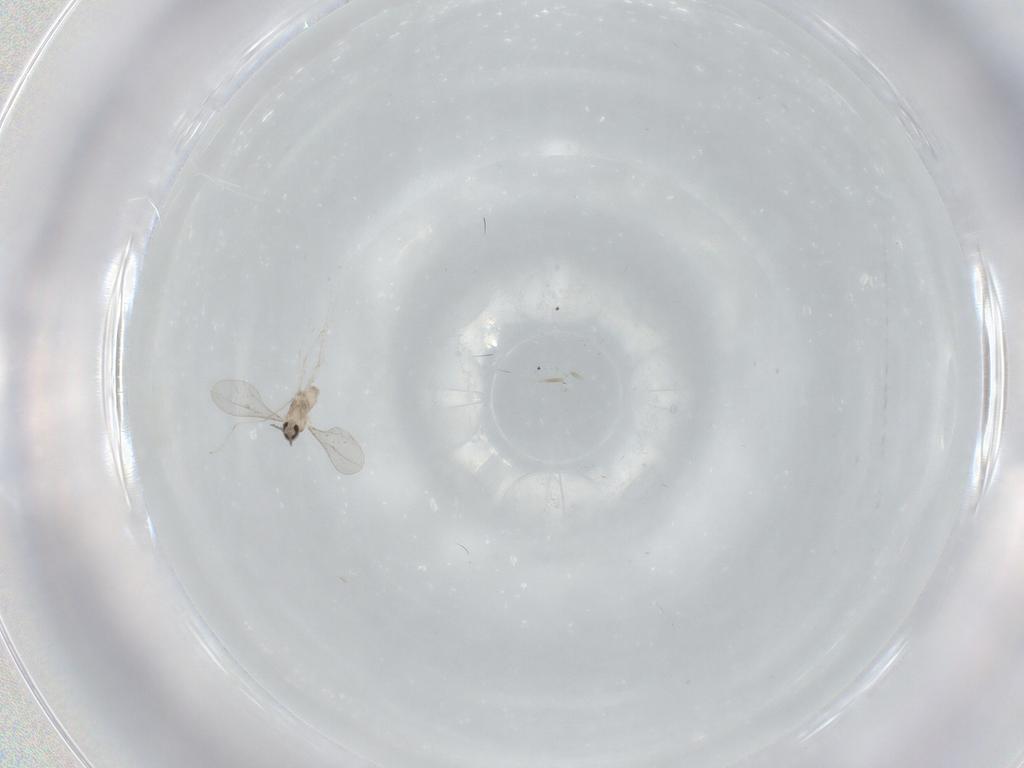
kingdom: Animalia
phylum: Arthropoda
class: Insecta
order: Diptera
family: Cecidomyiidae
